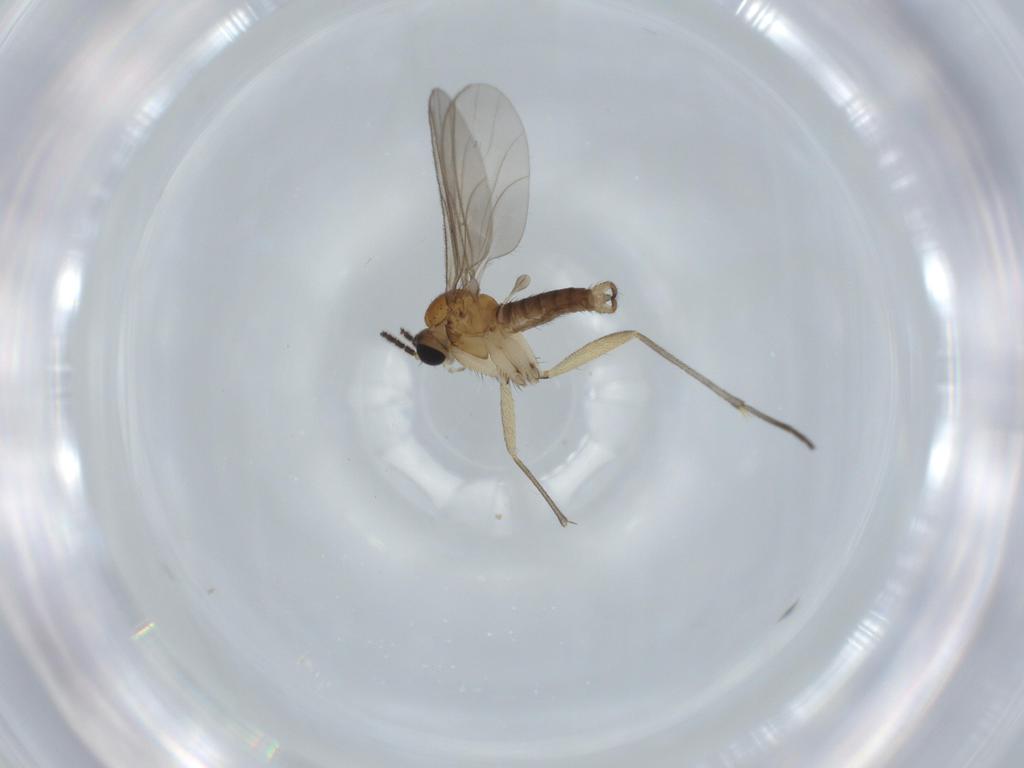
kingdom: Animalia
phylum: Arthropoda
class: Insecta
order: Diptera
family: Sciaridae
